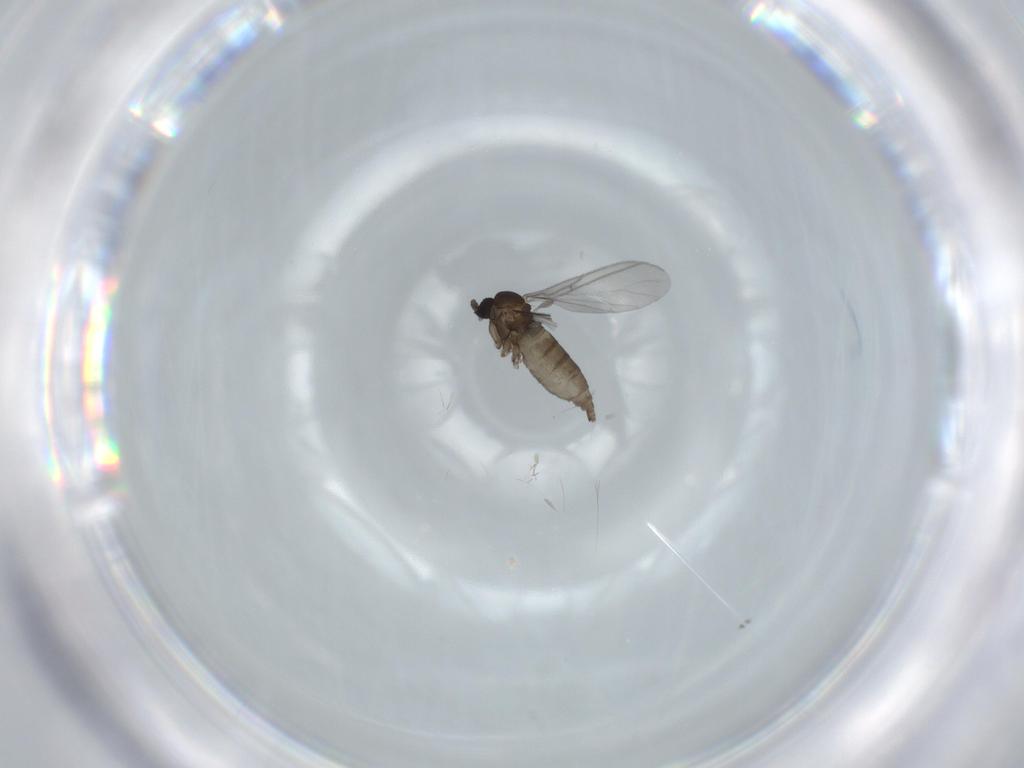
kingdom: Animalia
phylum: Arthropoda
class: Insecta
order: Diptera
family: Sciaridae
